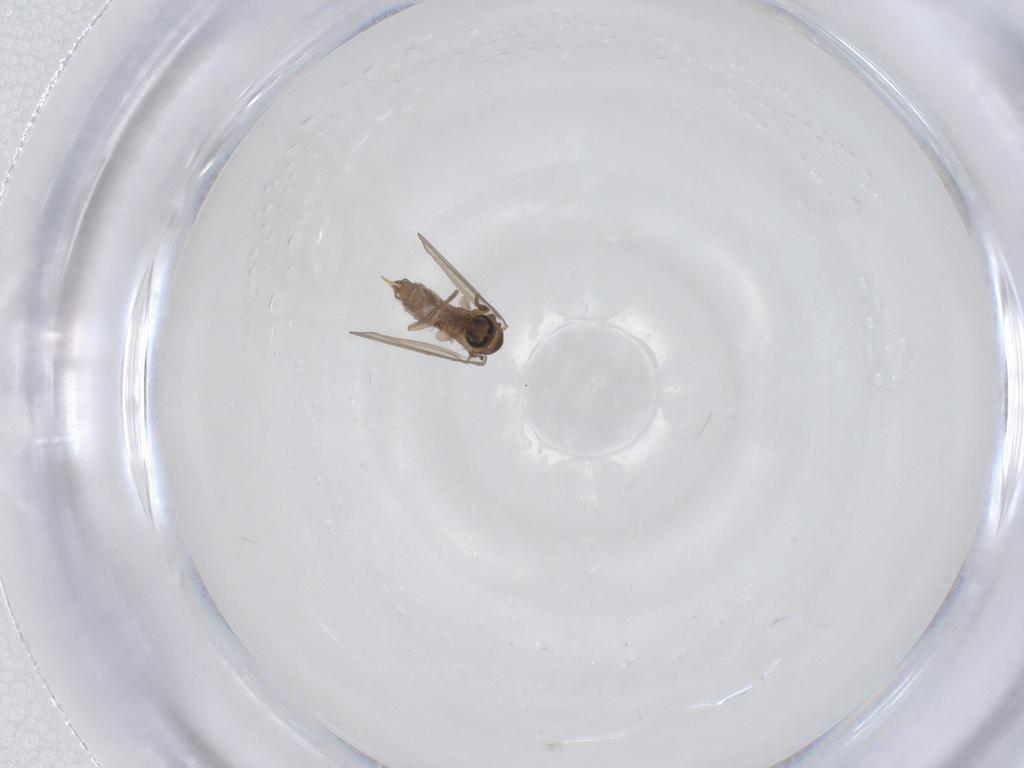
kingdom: Animalia
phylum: Arthropoda
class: Insecta
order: Diptera
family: Psychodidae
